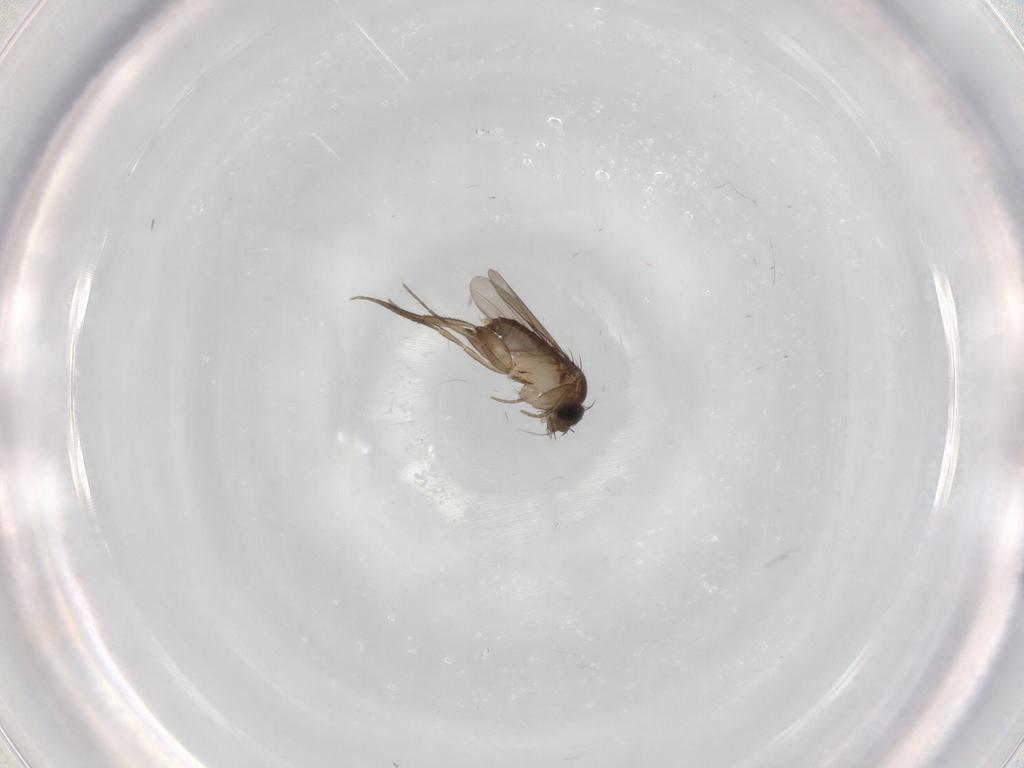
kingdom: Animalia
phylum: Arthropoda
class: Insecta
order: Diptera
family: Phoridae
